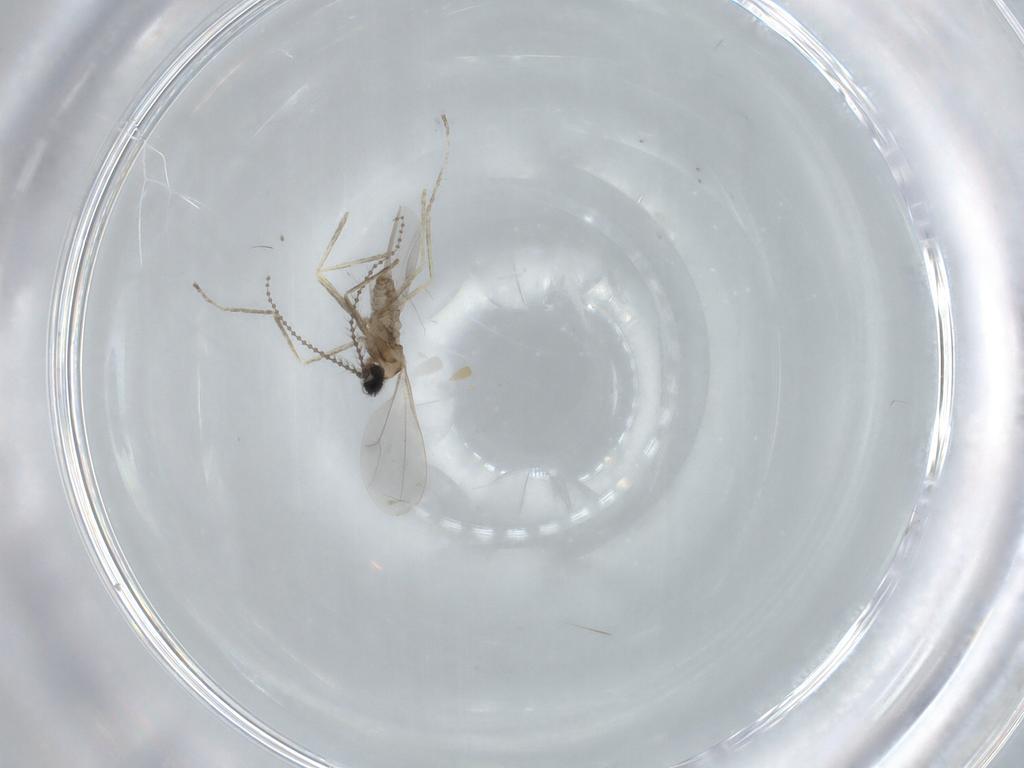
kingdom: Animalia
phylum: Arthropoda
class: Insecta
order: Diptera
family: Cecidomyiidae
